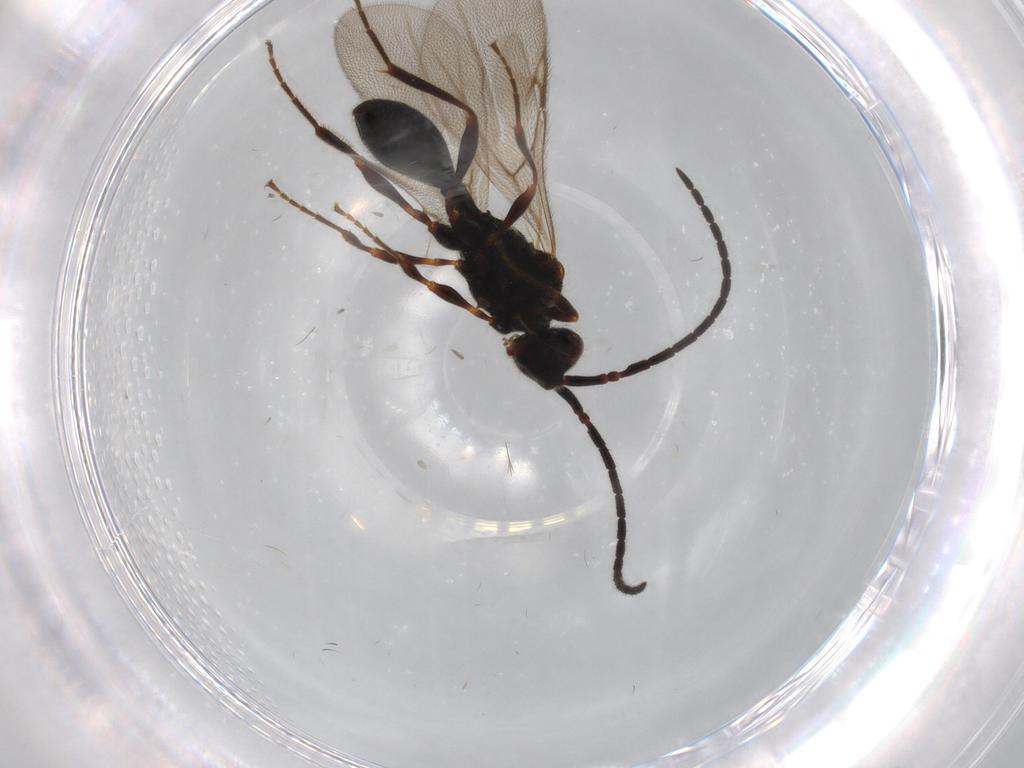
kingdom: Animalia
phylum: Arthropoda
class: Insecta
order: Hymenoptera
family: Diapriidae
